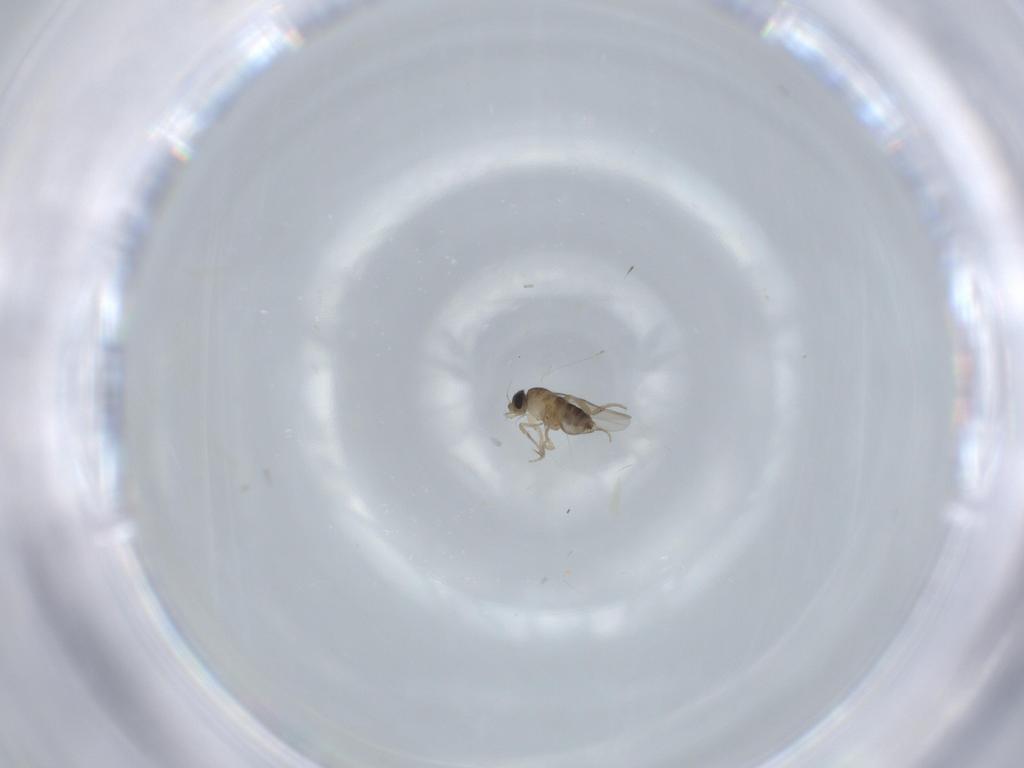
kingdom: Animalia
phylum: Arthropoda
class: Insecta
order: Diptera
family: Phoridae
